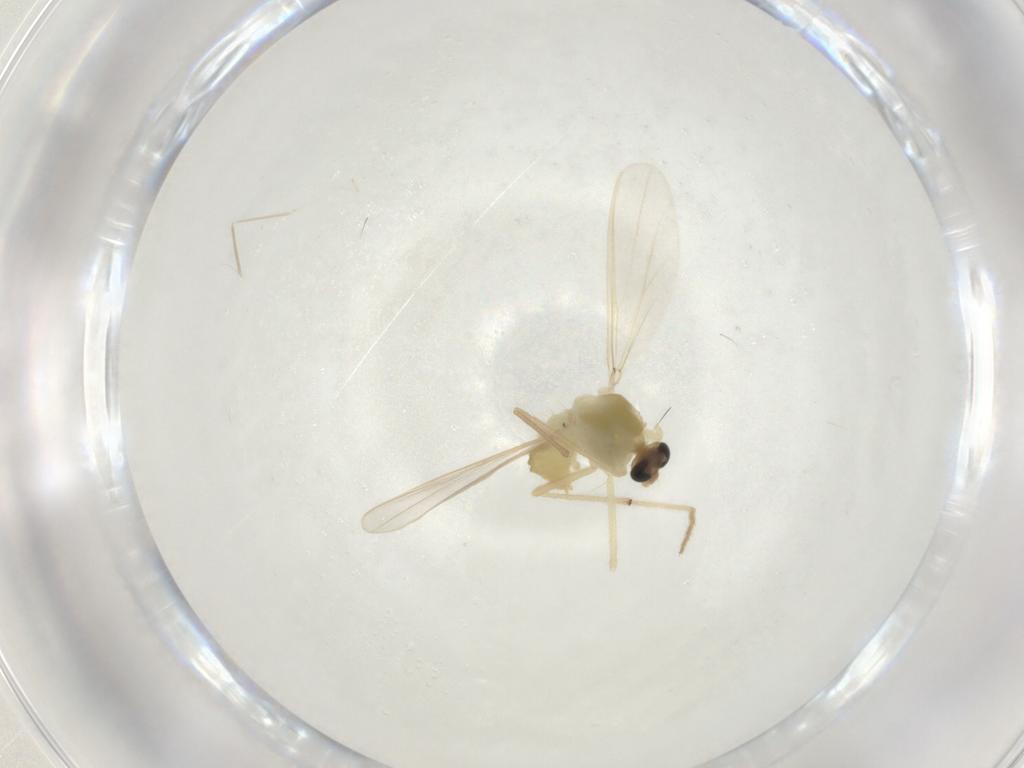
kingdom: Animalia
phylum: Arthropoda
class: Insecta
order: Diptera
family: Chironomidae
